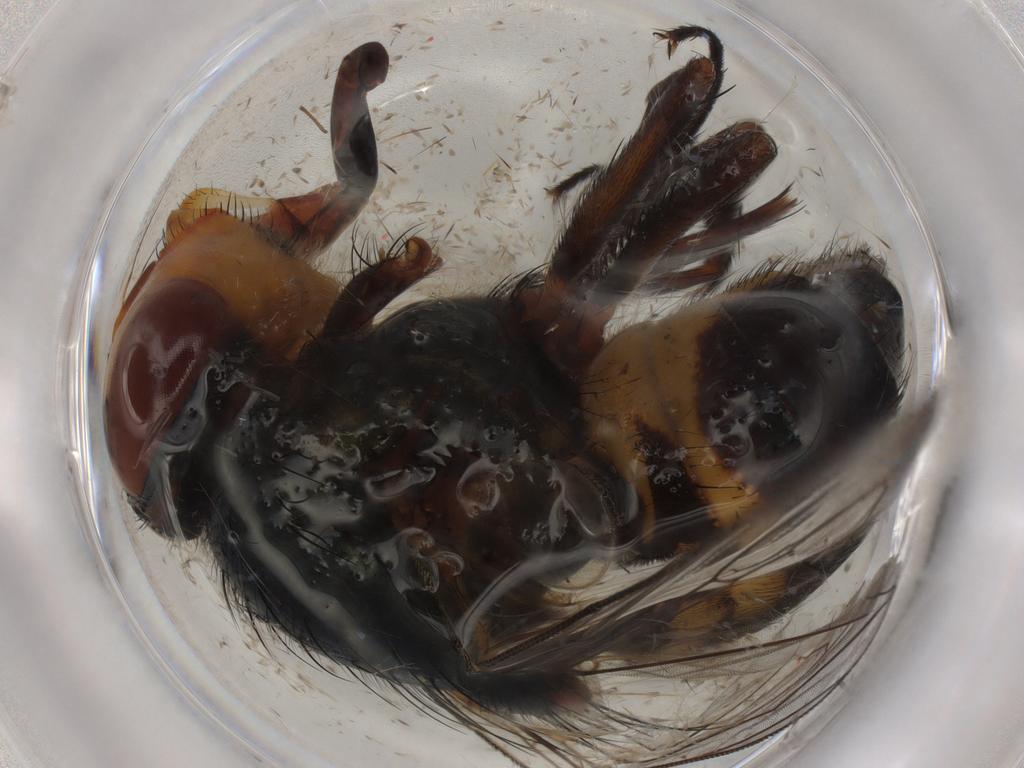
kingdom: Animalia
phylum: Arthropoda
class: Insecta
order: Diptera
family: Calliphoridae
